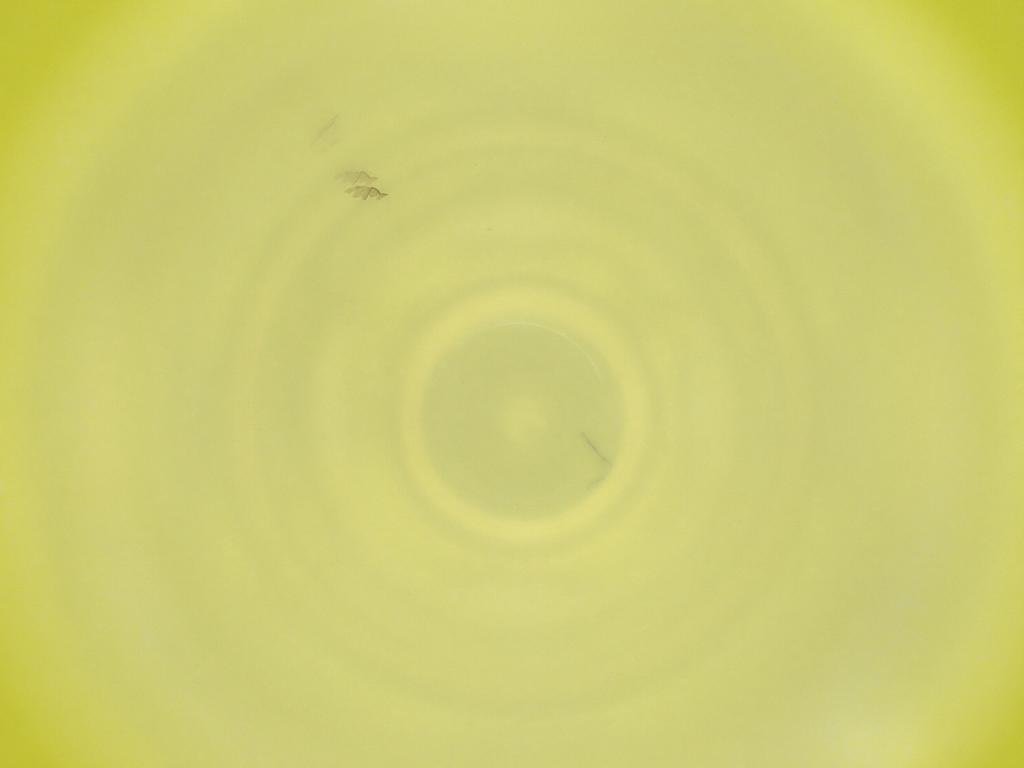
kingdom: Animalia
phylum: Arthropoda
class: Insecta
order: Diptera
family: Cecidomyiidae
